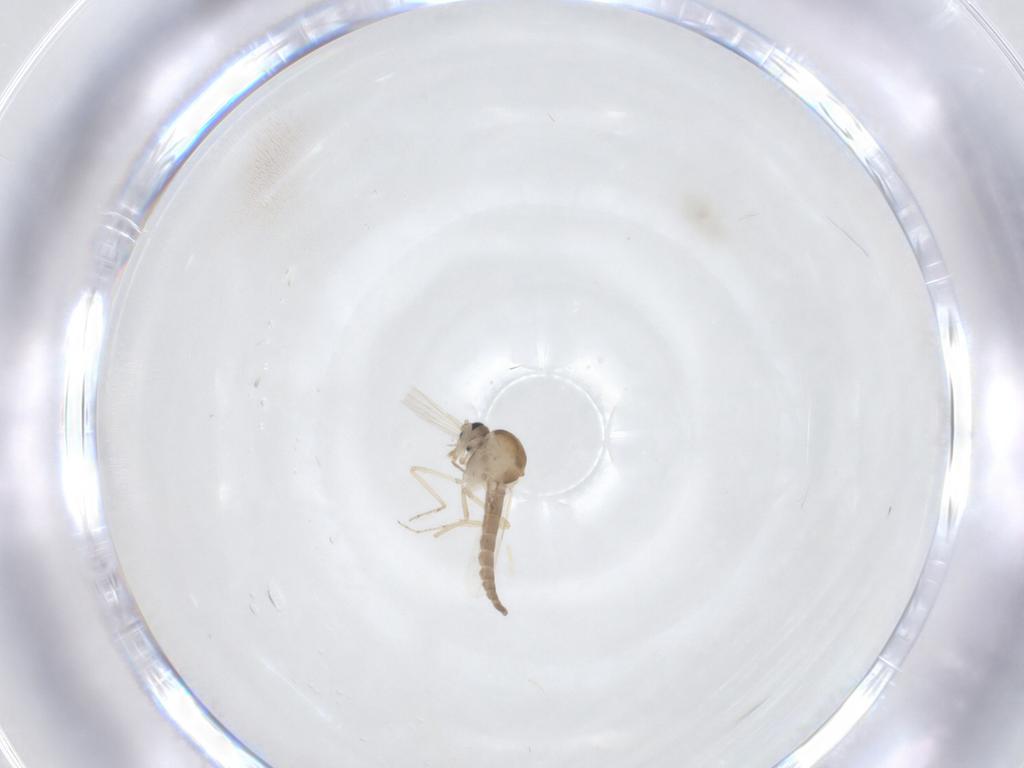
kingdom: Animalia
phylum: Arthropoda
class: Insecta
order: Diptera
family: Ceratopogonidae
